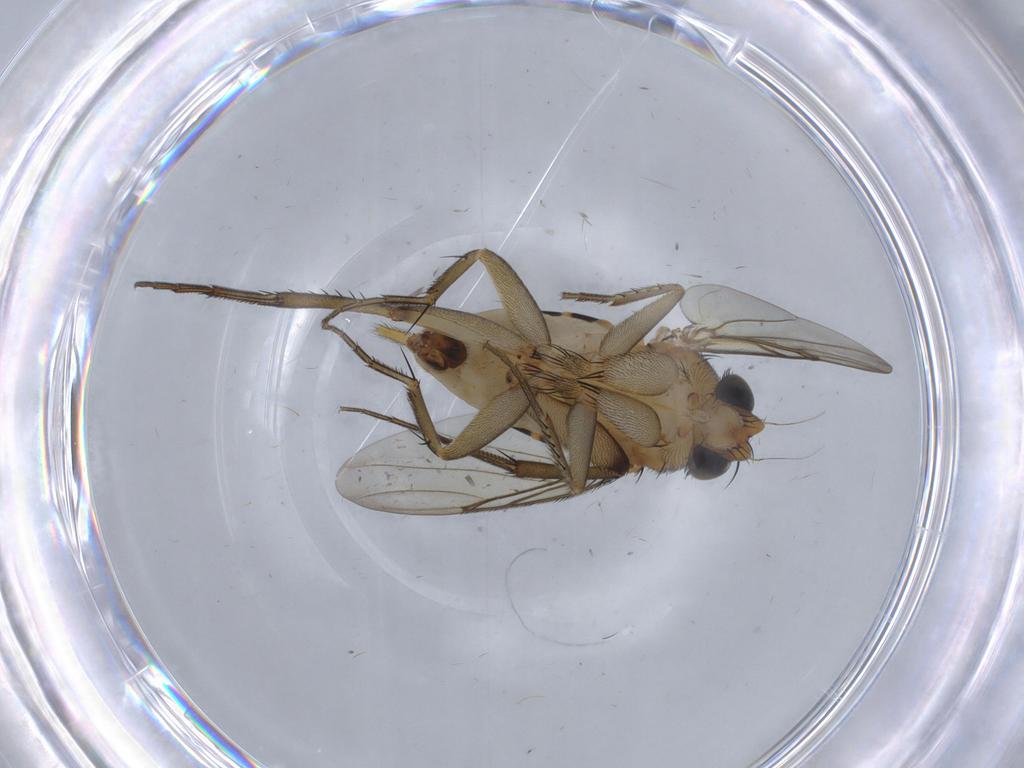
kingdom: Animalia
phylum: Arthropoda
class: Insecta
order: Diptera
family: Phoridae
